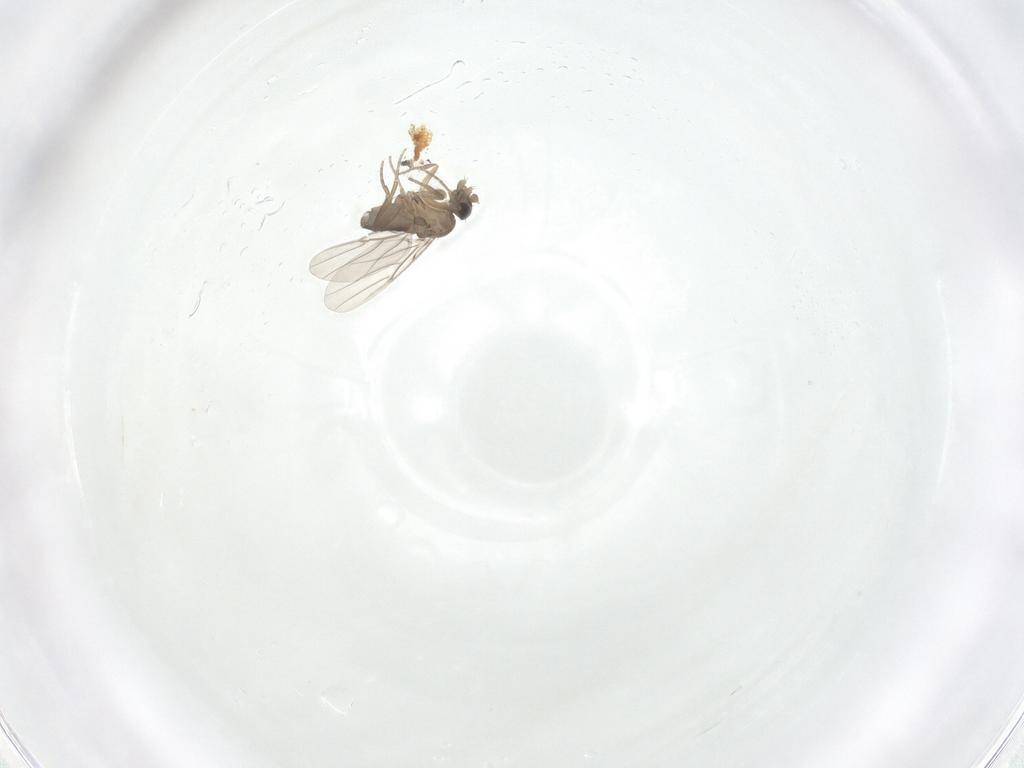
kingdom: Animalia
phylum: Arthropoda
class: Insecta
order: Diptera
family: Phoridae
